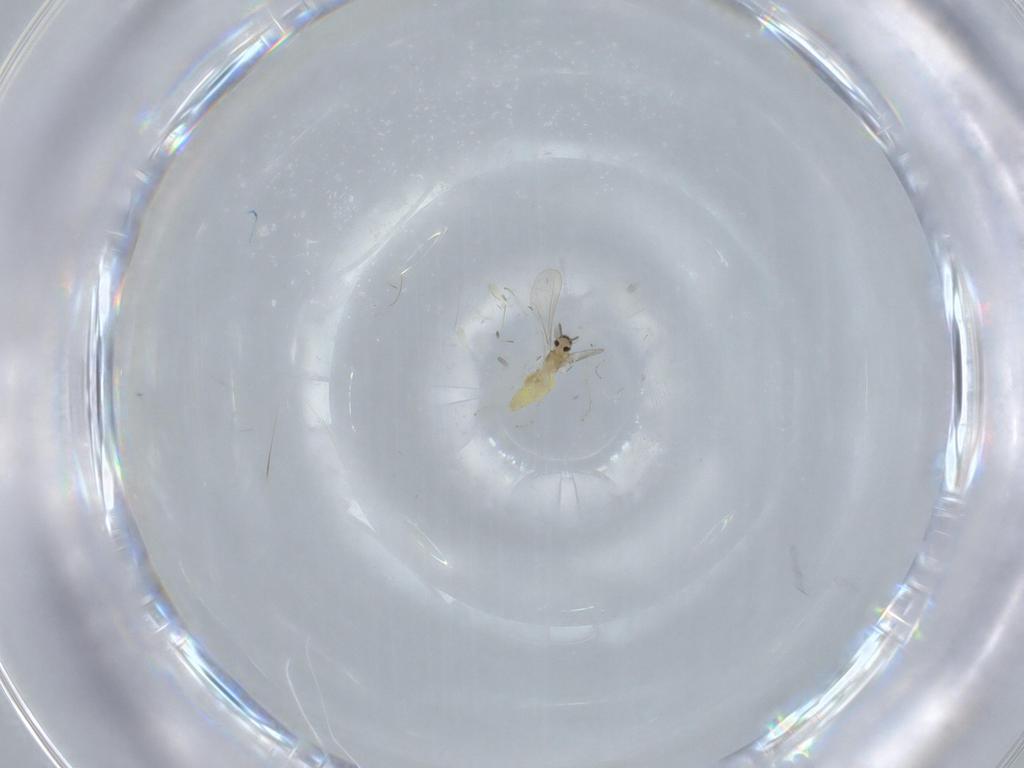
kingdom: Animalia
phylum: Arthropoda
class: Insecta
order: Diptera
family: Cecidomyiidae
